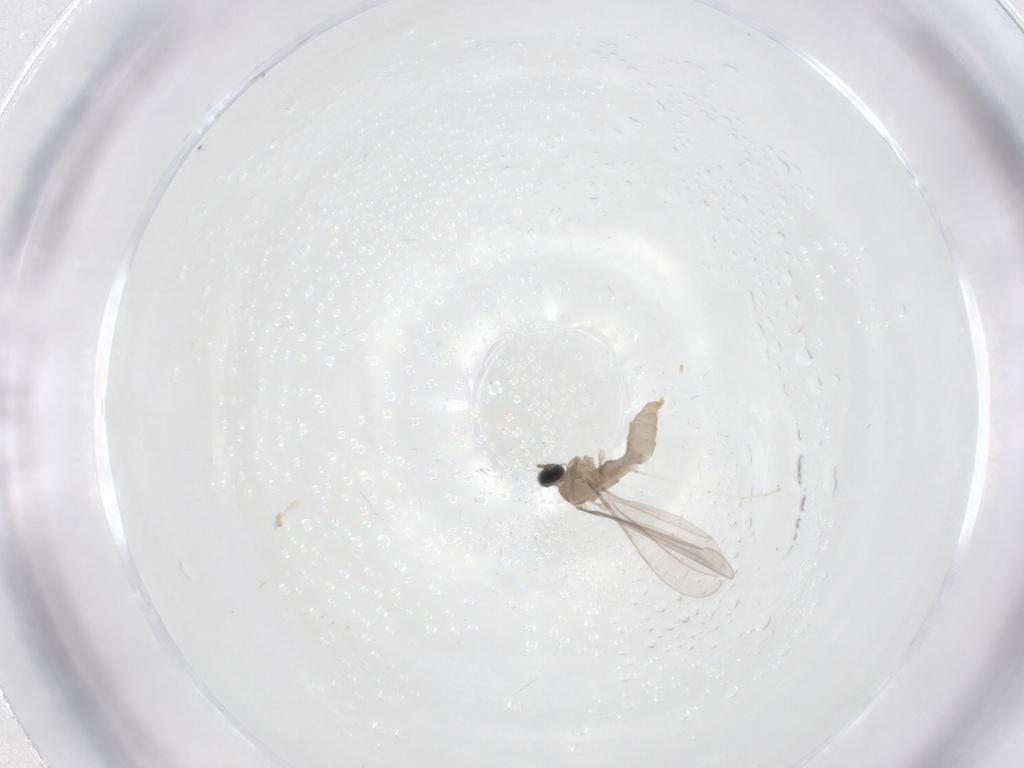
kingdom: Animalia
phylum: Arthropoda
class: Insecta
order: Diptera
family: Cecidomyiidae
